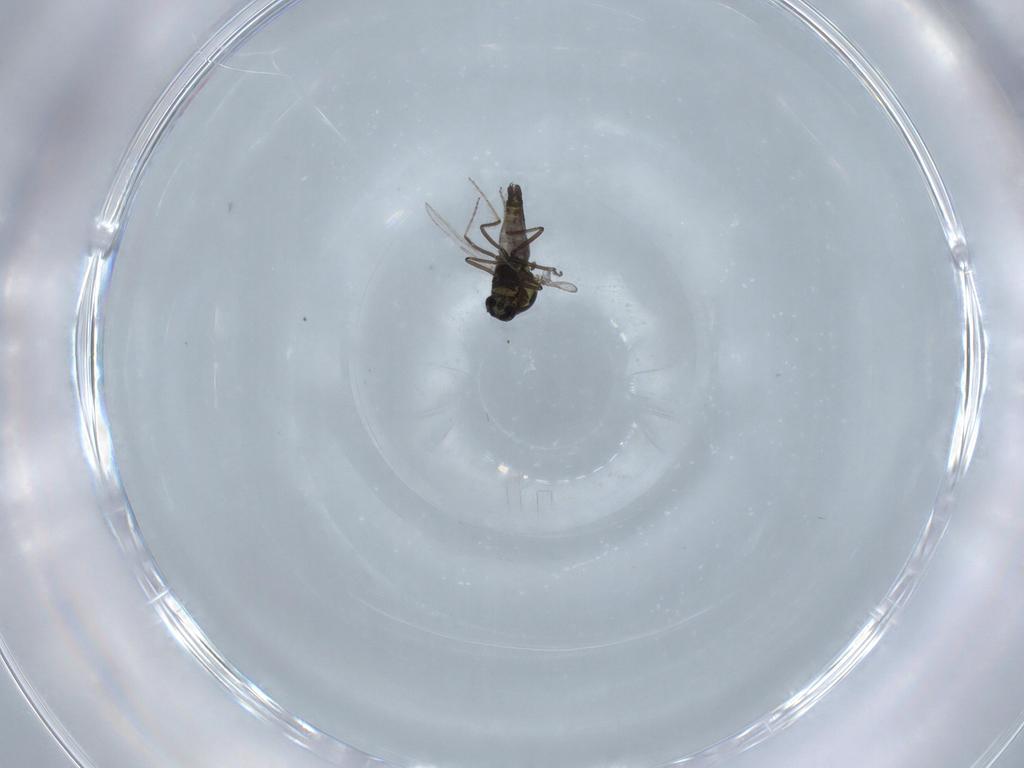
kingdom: Animalia
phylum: Arthropoda
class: Insecta
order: Diptera
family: Ceratopogonidae
